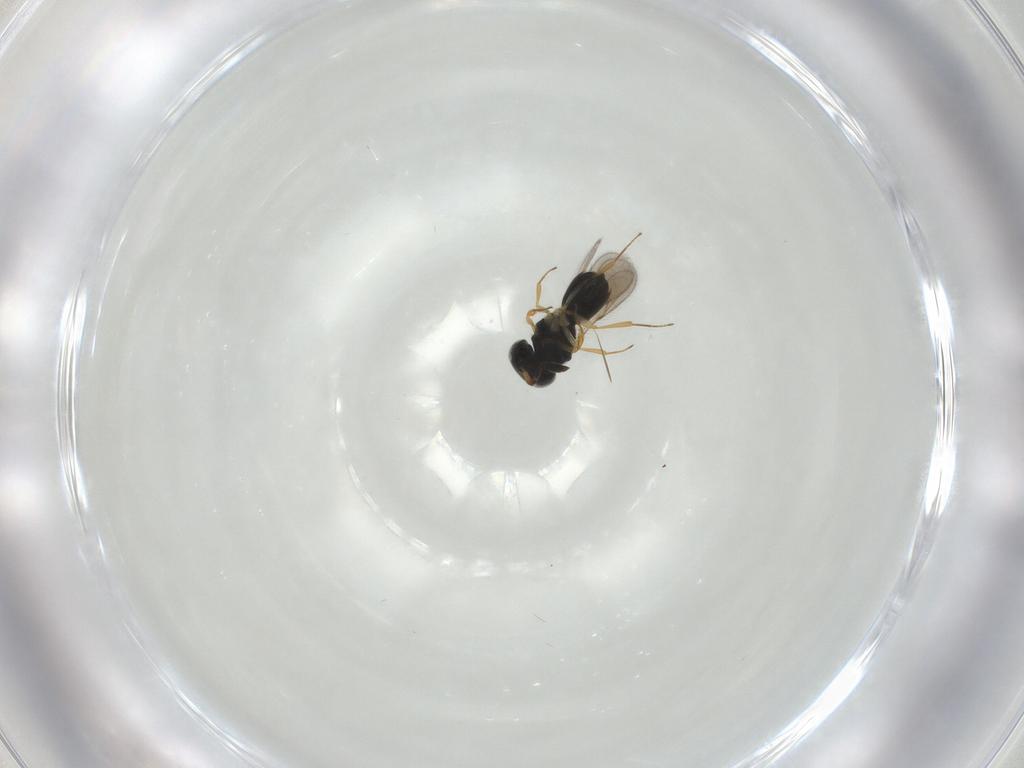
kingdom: Animalia
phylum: Arthropoda
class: Insecta
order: Hymenoptera
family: Scelionidae
